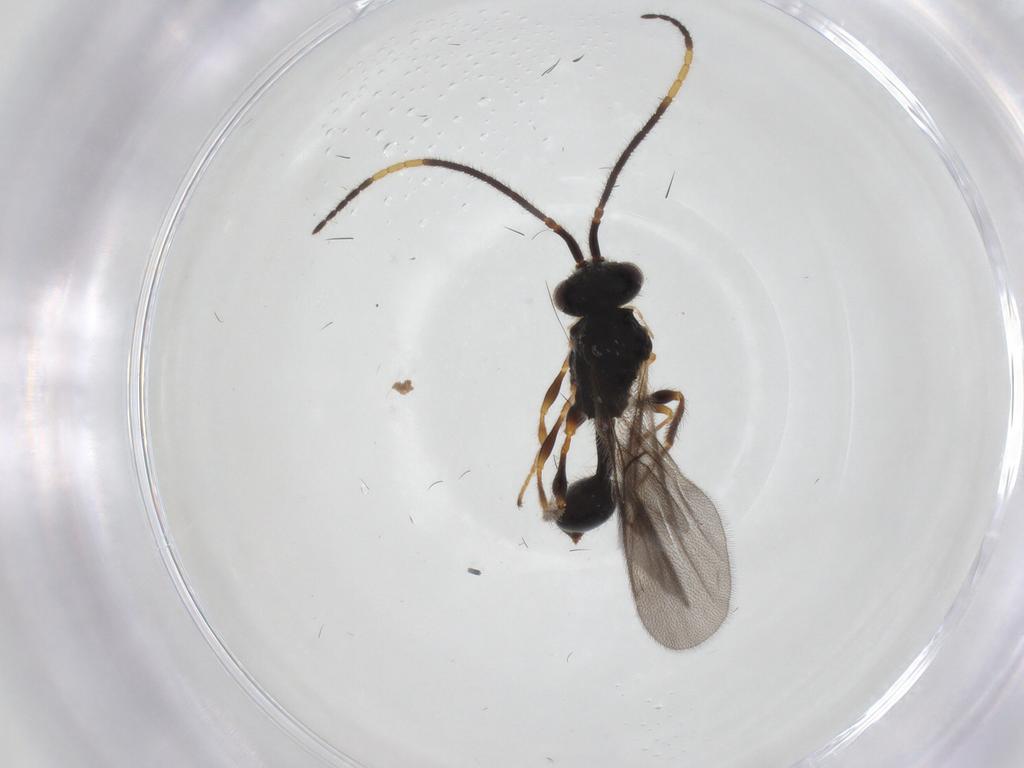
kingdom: Animalia
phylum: Arthropoda
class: Insecta
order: Hymenoptera
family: Diapriidae
